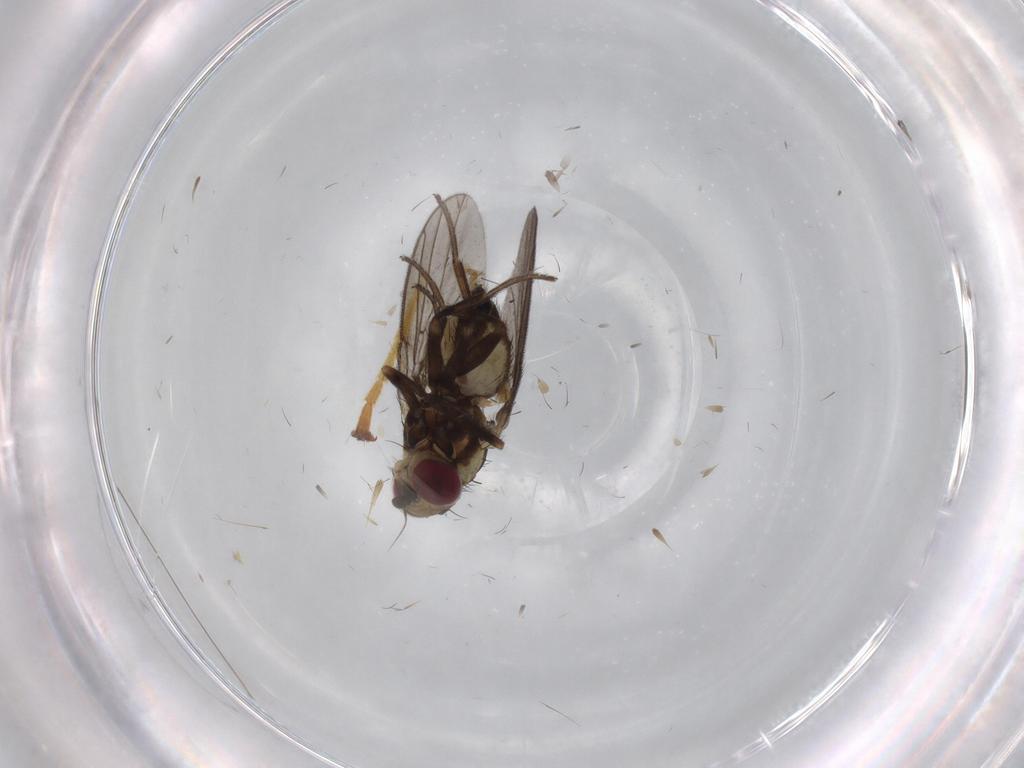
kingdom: Animalia
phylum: Arthropoda
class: Insecta
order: Diptera
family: Agromyzidae
